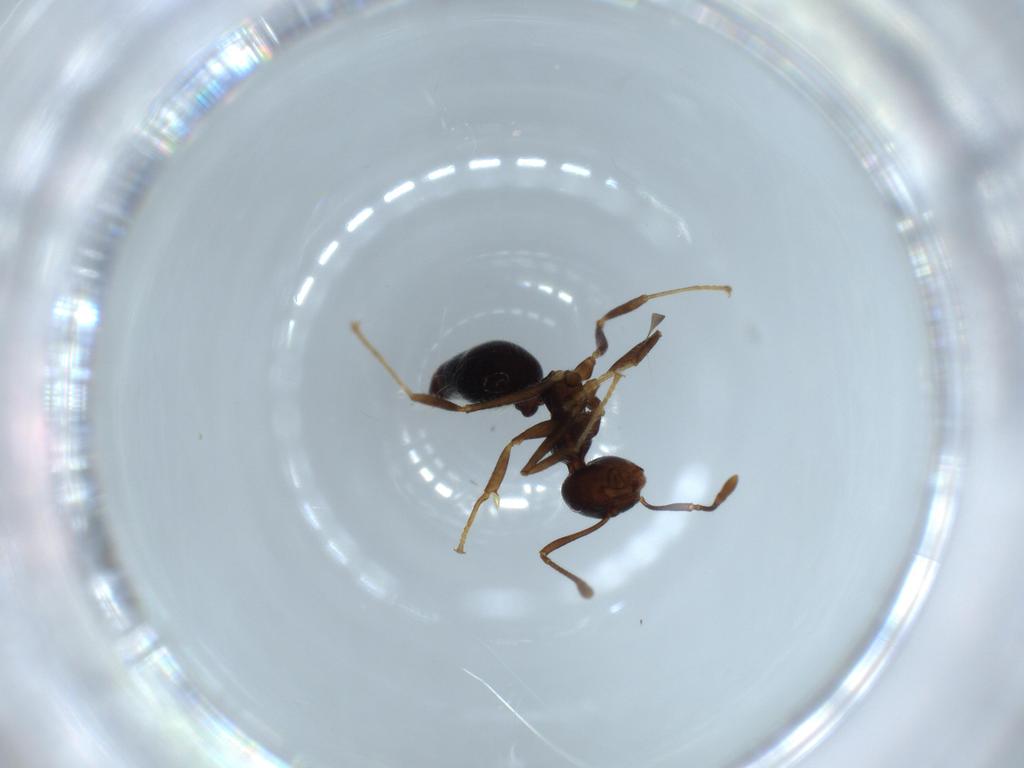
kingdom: Animalia
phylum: Arthropoda
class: Insecta
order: Hymenoptera
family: Formicidae
